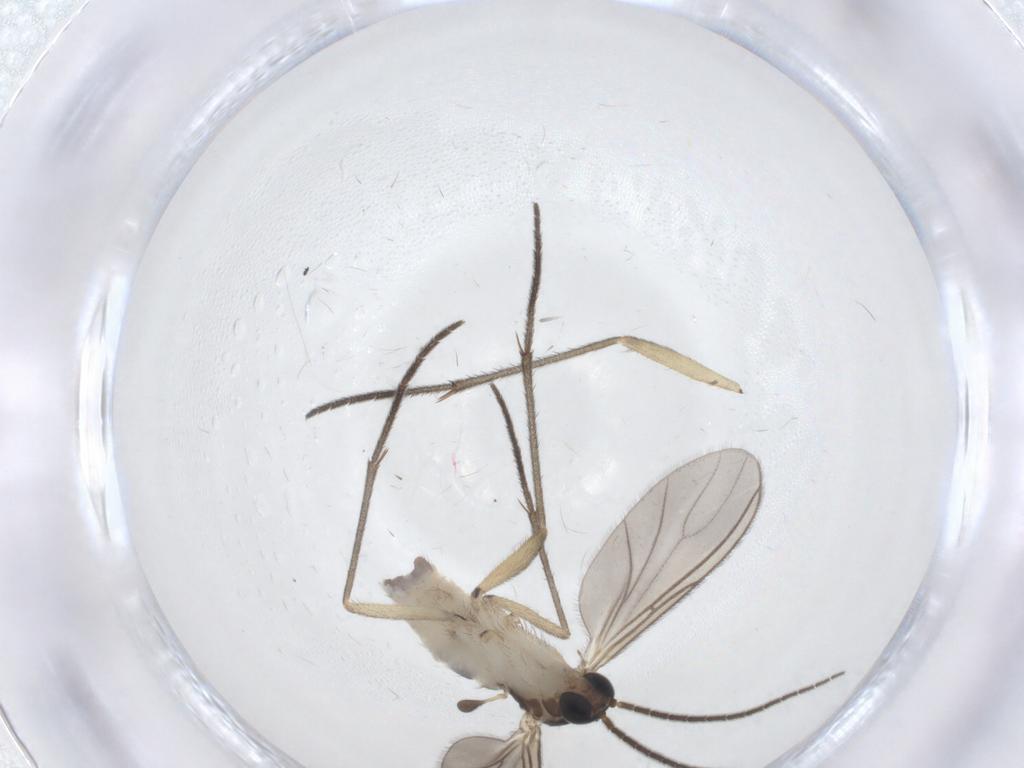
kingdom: Animalia
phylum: Arthropoda
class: Insecta
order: Diptera
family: Sciaridae
